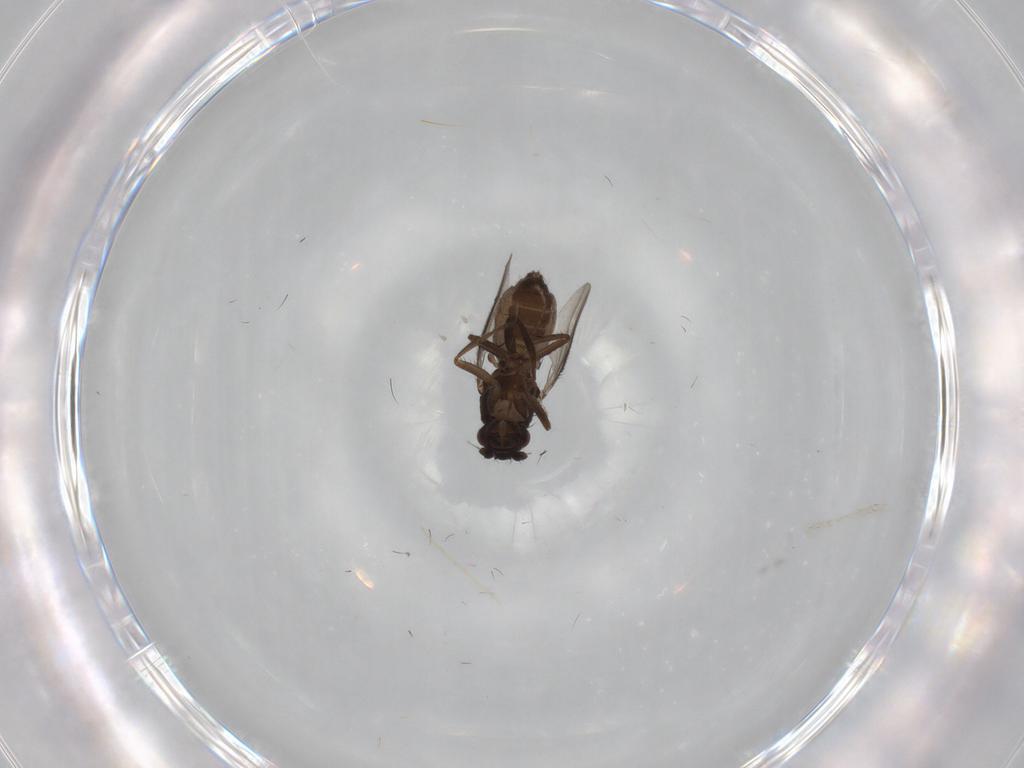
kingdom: Animalia
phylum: Arthropoda
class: Insecta
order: Diptera
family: Sphaeroceridae
